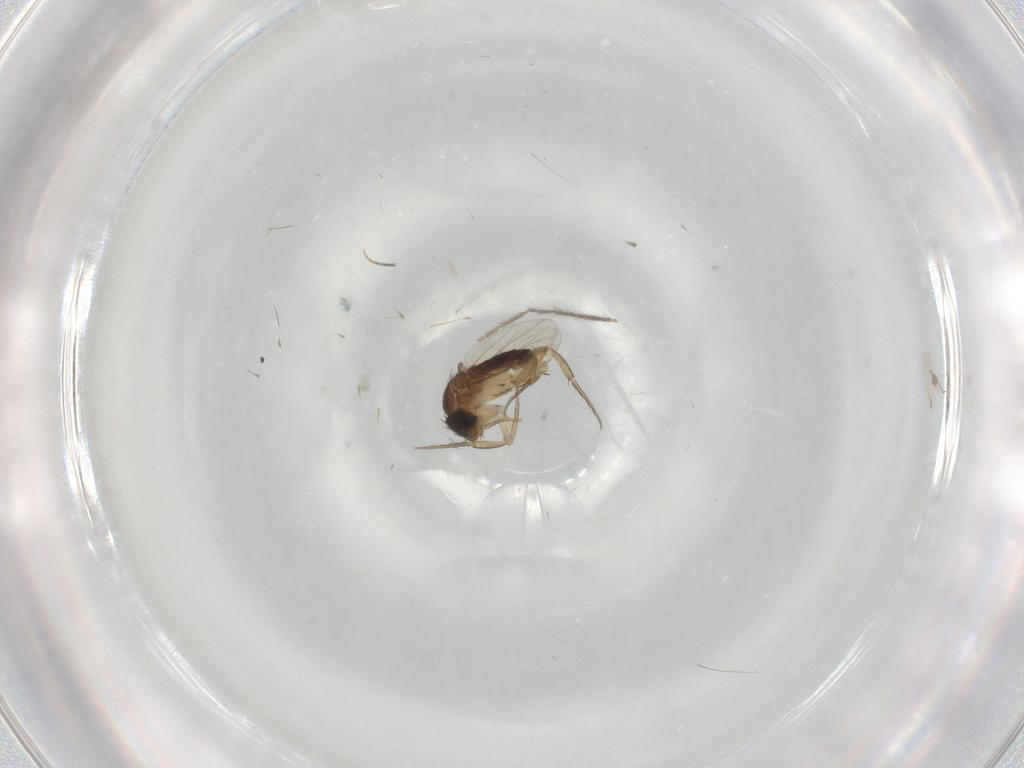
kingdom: Animalia
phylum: Arthropoda
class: Insecta
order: Diptera
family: Phoridae
